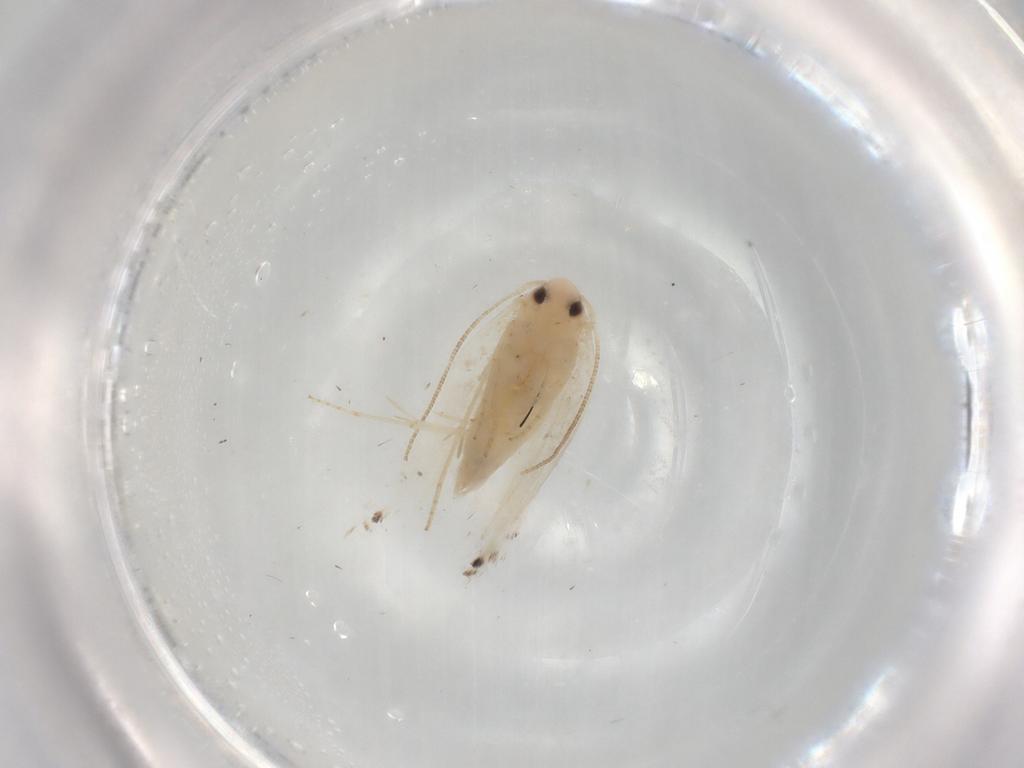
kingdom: Animalia
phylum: Arthropoda
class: Insecta
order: Lepidoptera
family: Gracillariidae
